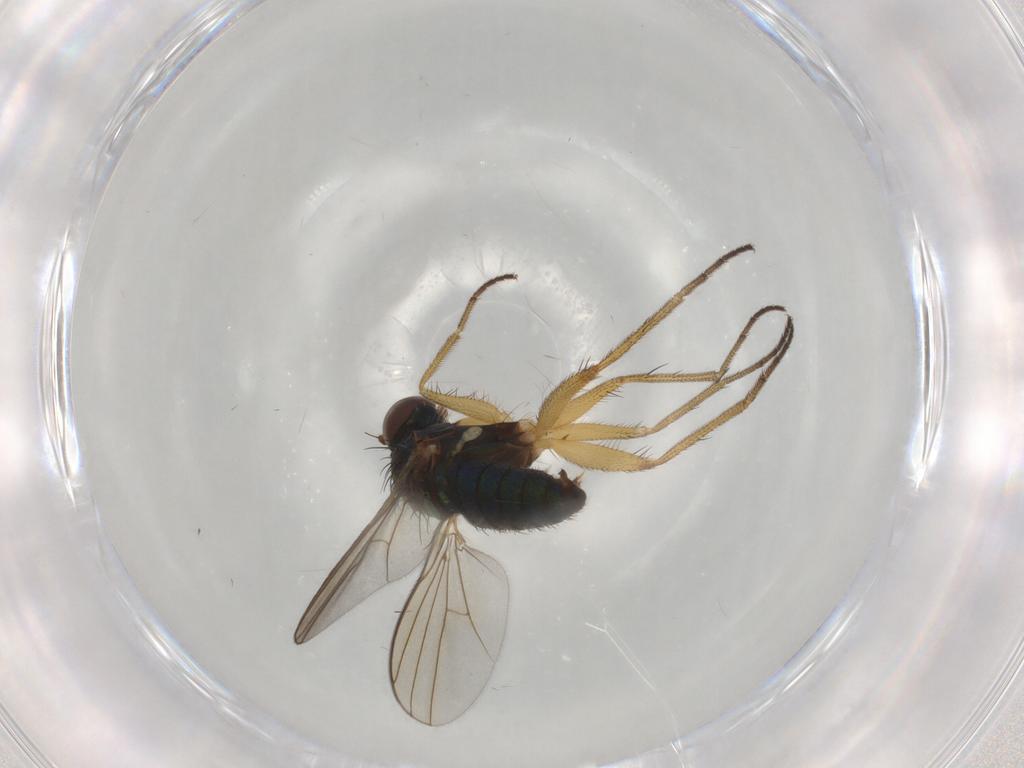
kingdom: Animalia
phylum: Arthropoda
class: Insecta
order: Diptera
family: Dolichopodidae
